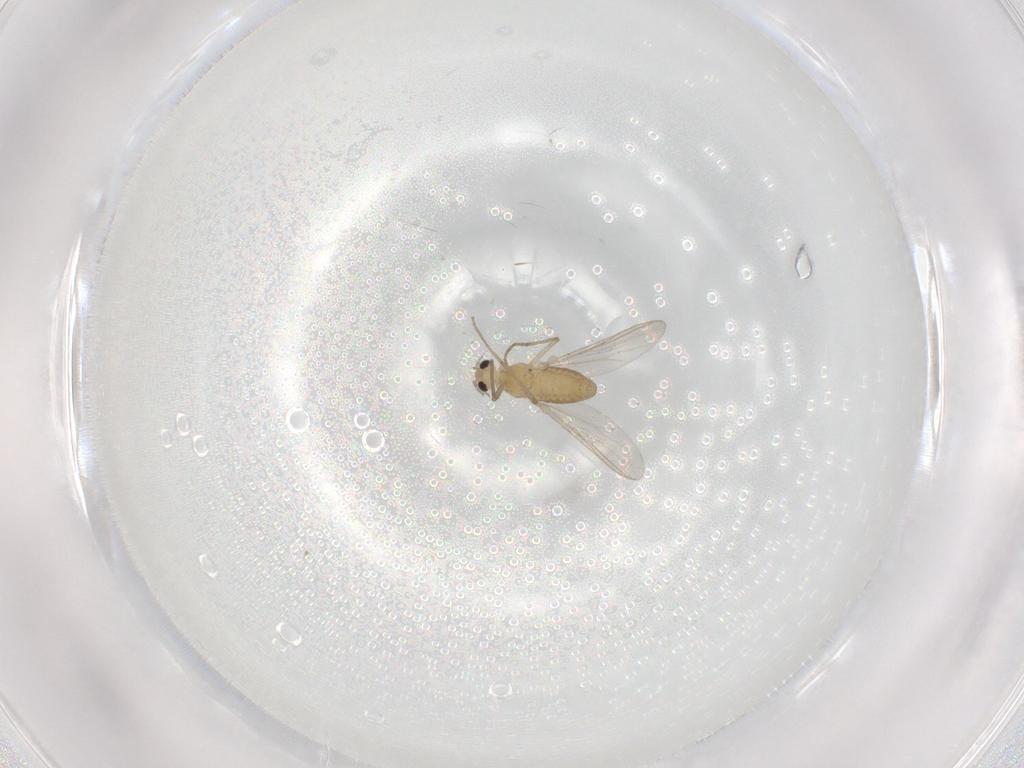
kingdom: Animalia
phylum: Arthropoda
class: Insecta
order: Diptera
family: Chironomidae
